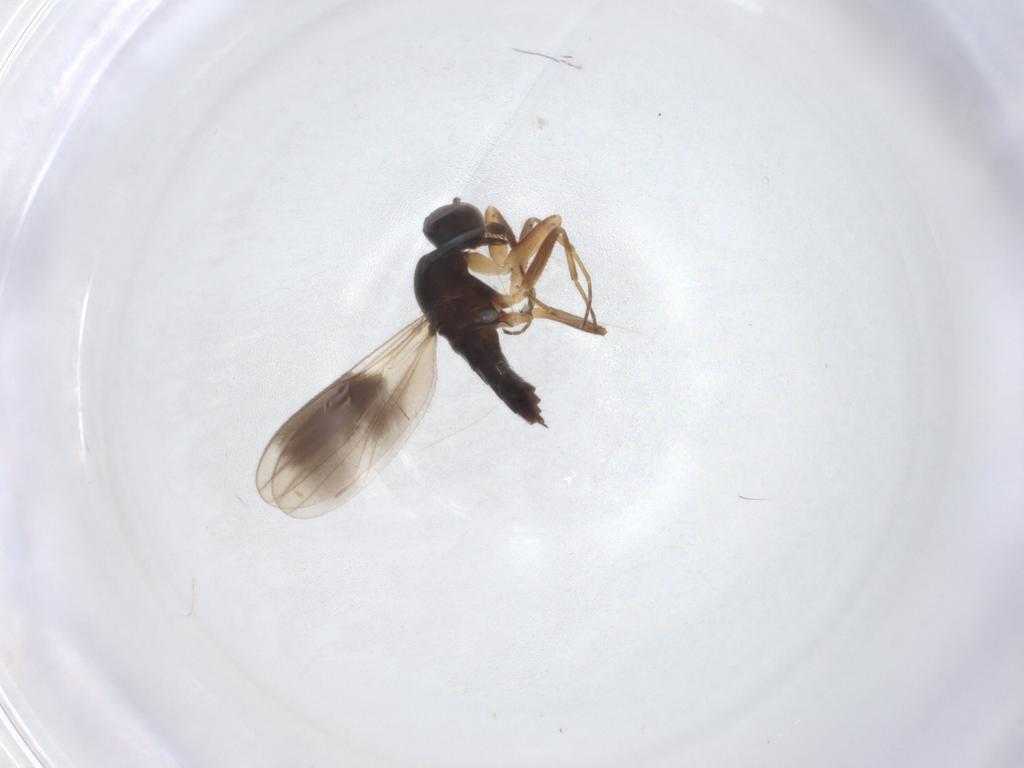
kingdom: Animalia
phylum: Arthropoda
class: Insecta
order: Diptera
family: Hybotidae
